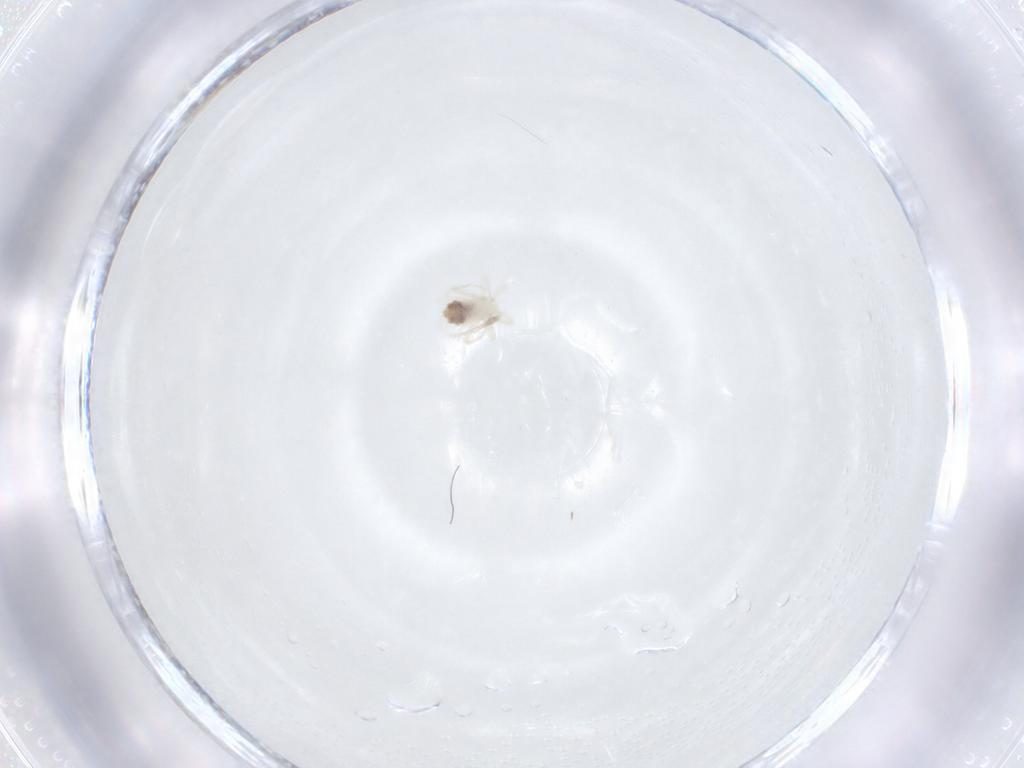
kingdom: Animalia
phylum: Arthropoda
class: Arachnida
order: Trombidiformes
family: Anystidae
